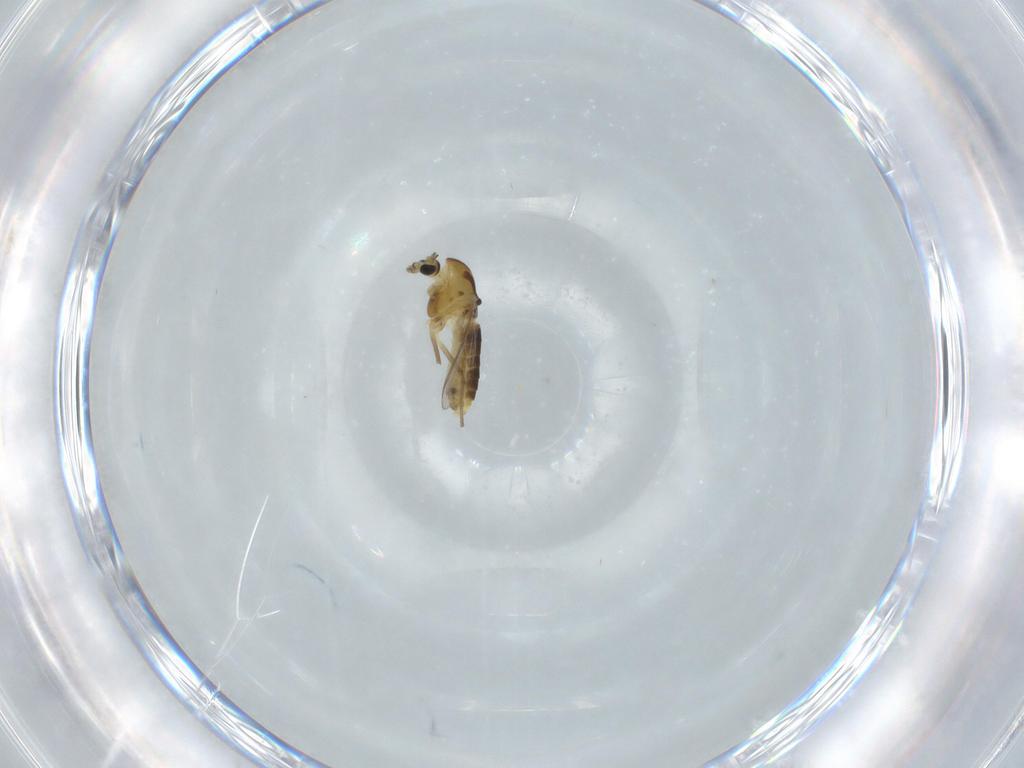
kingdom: Animalia
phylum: Arthropoda
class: Insecta
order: Diptera
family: Chironomidae
